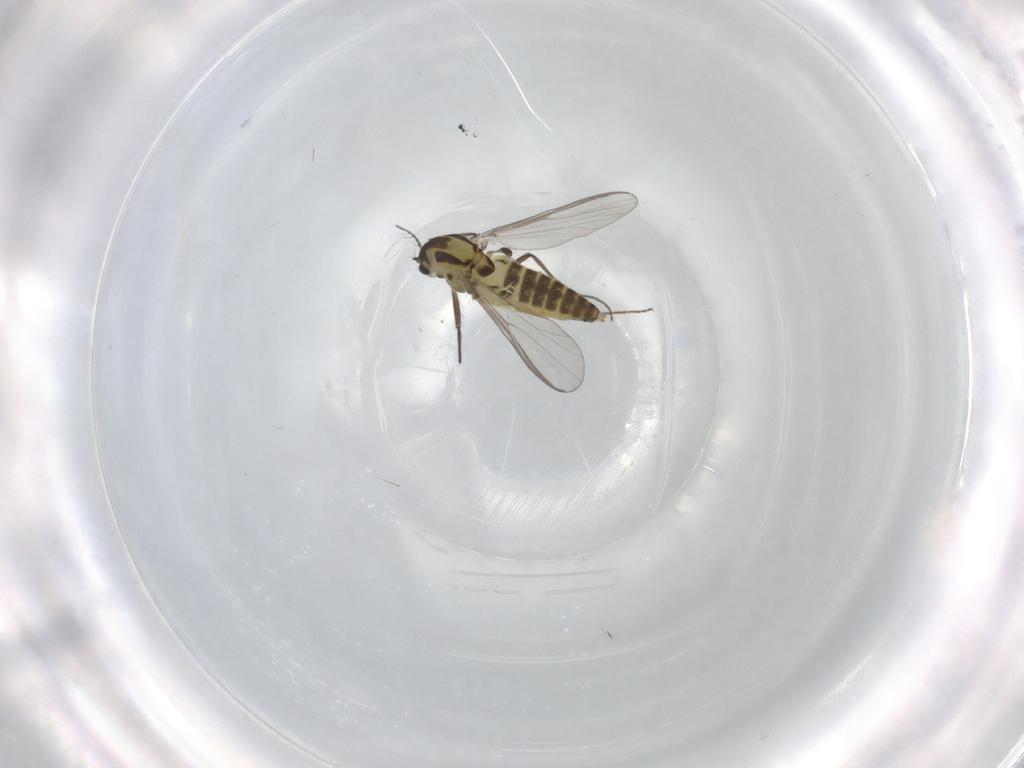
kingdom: Animalia
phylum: Arthropoda
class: Insecta
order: Diptera
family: Chironomidae
